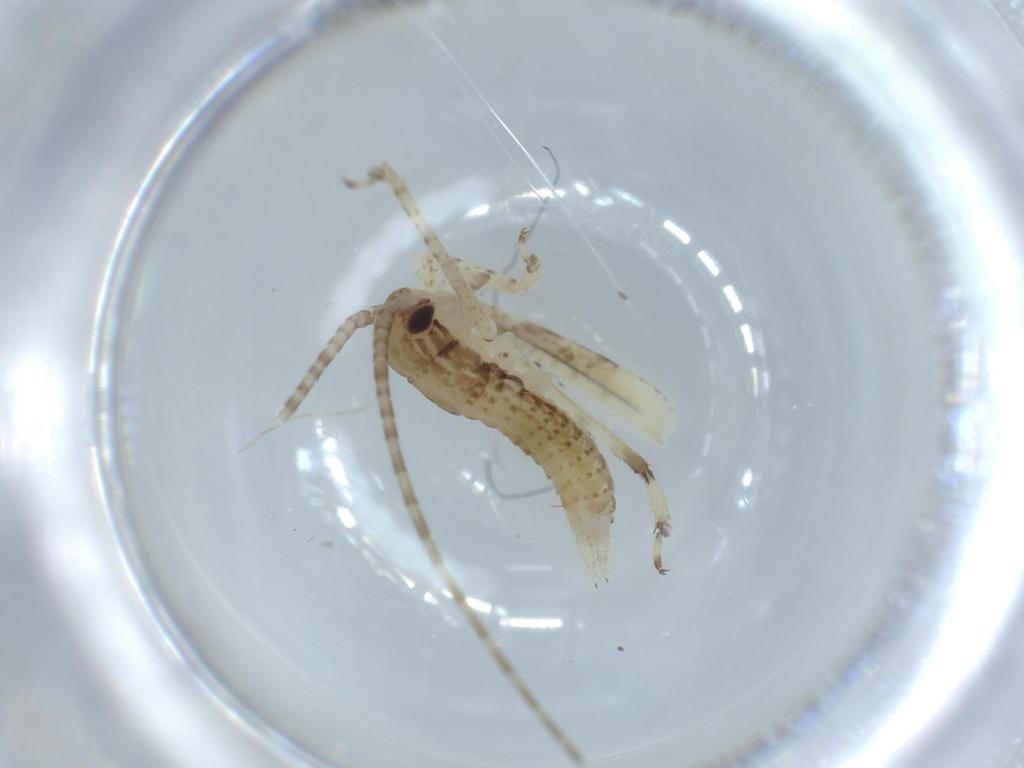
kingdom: Animalia
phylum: Arthropoda
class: Insecta
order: Orthoptera
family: Gryllidae
